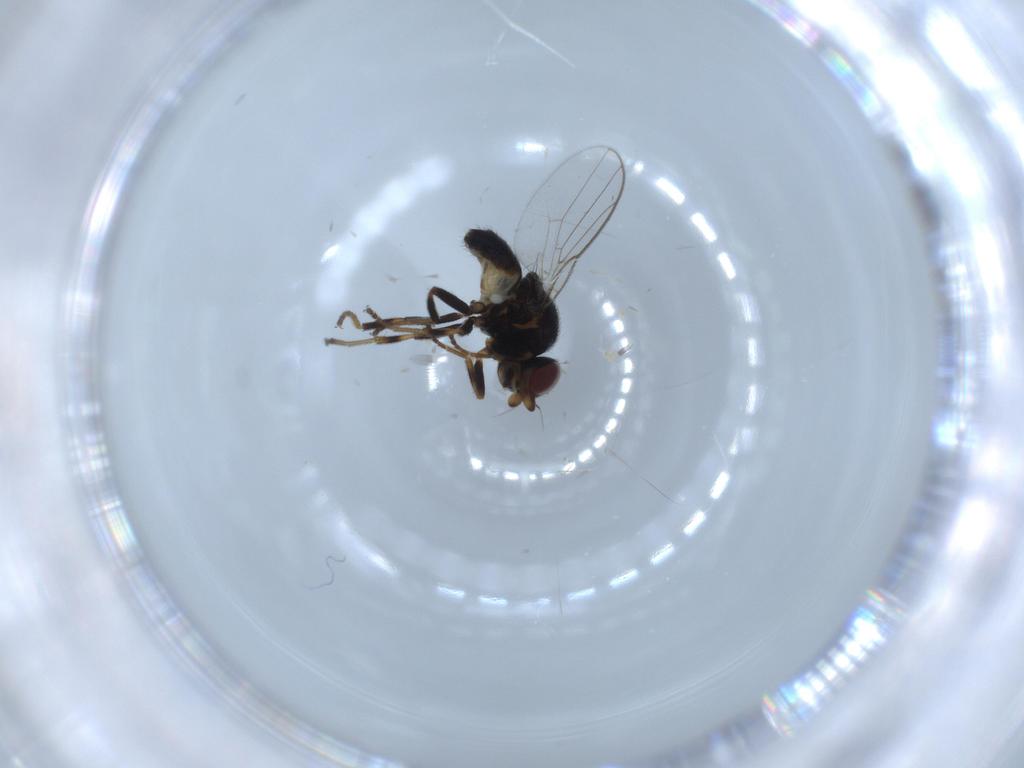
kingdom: Animalia
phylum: Arthropoda
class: Insecta
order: Diptera
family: Chloropidae
